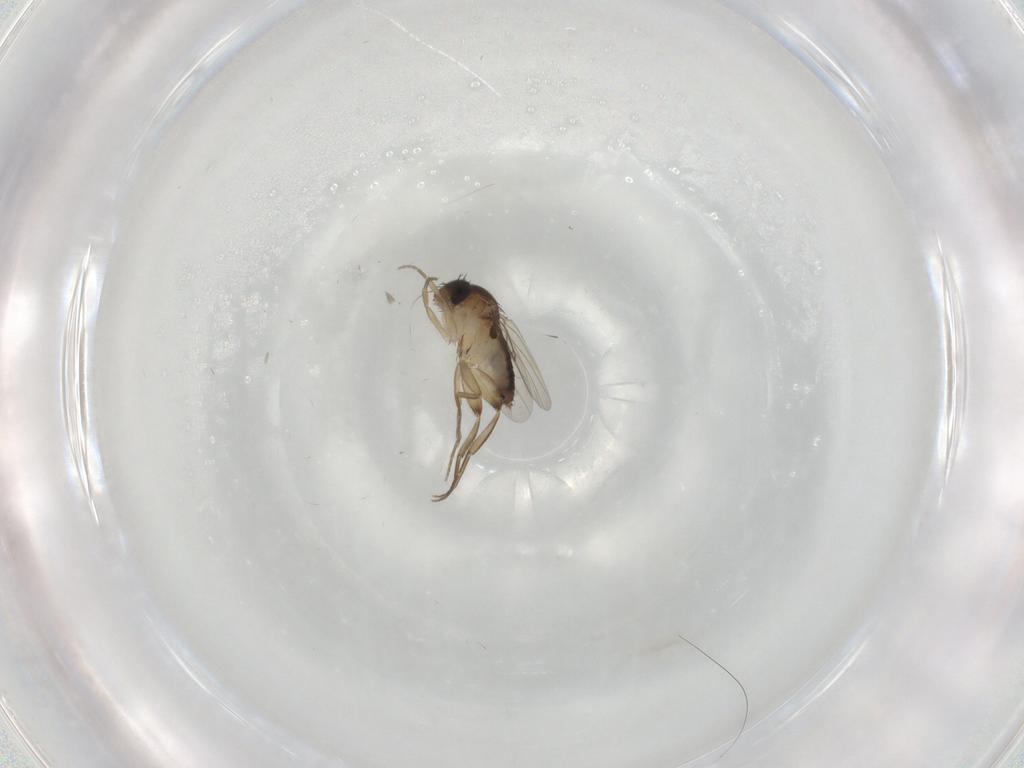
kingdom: Animalia
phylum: Arthropoda
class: Insecta
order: Diptera
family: Phoridae
